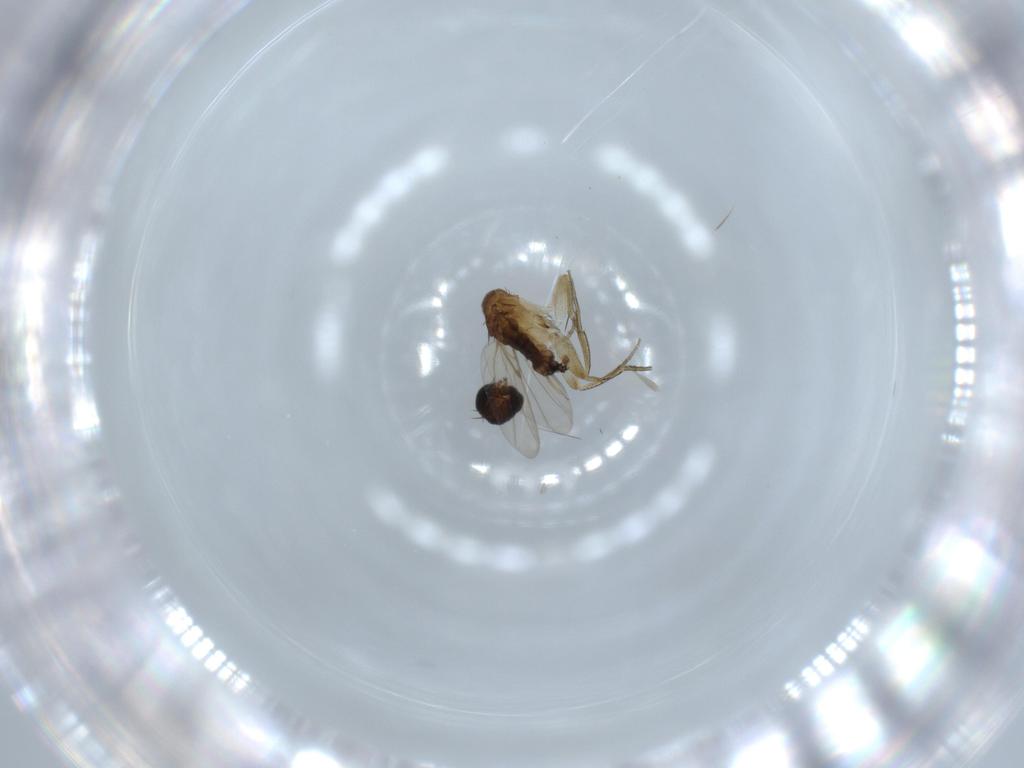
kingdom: Animalia
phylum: Arthropoda
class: Insecta
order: Diptera
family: Phoridae
